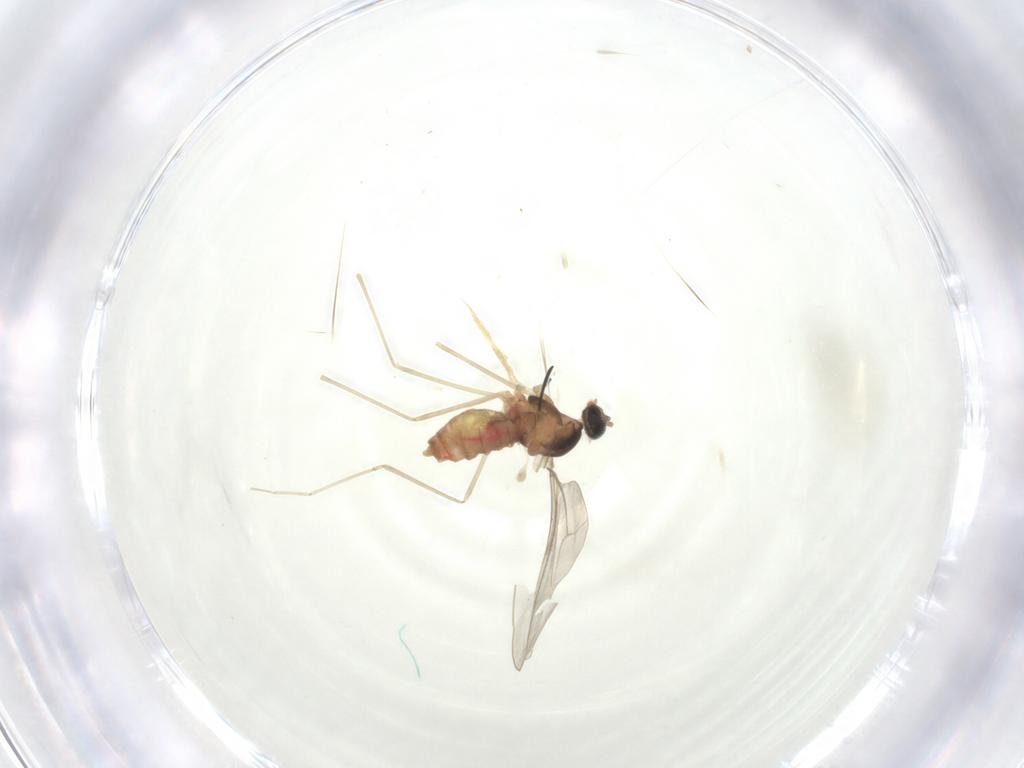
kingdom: Animalia
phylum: Arthropoda
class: Insecta
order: Diptera
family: Cecidomyiidae
